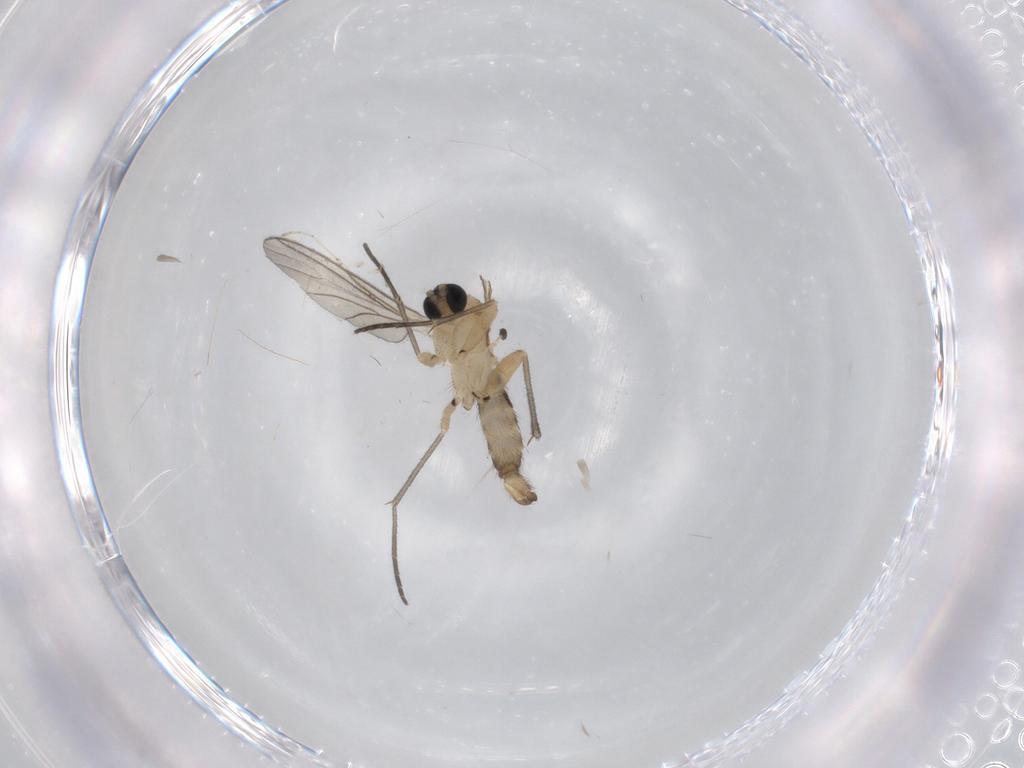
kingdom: Animalia
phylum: Arthropoda
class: Insecta
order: Diptera
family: Sciaridae
